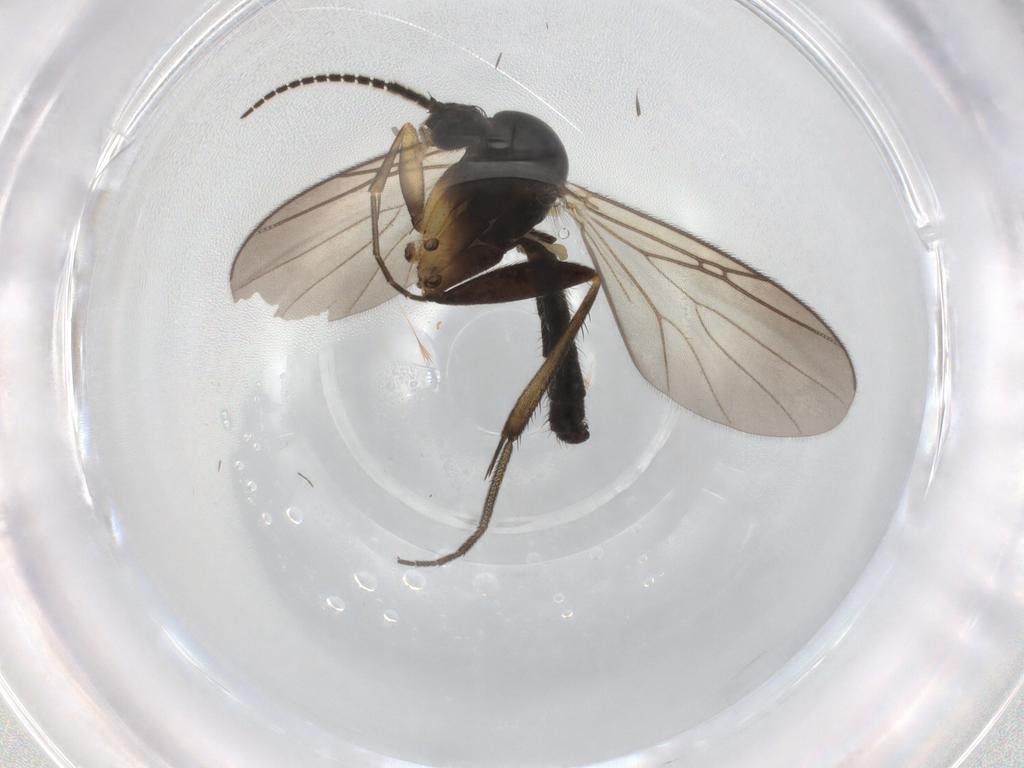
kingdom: Animalia
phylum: Arthropoda
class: Insecta
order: Diptera
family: Mycetophilidae
